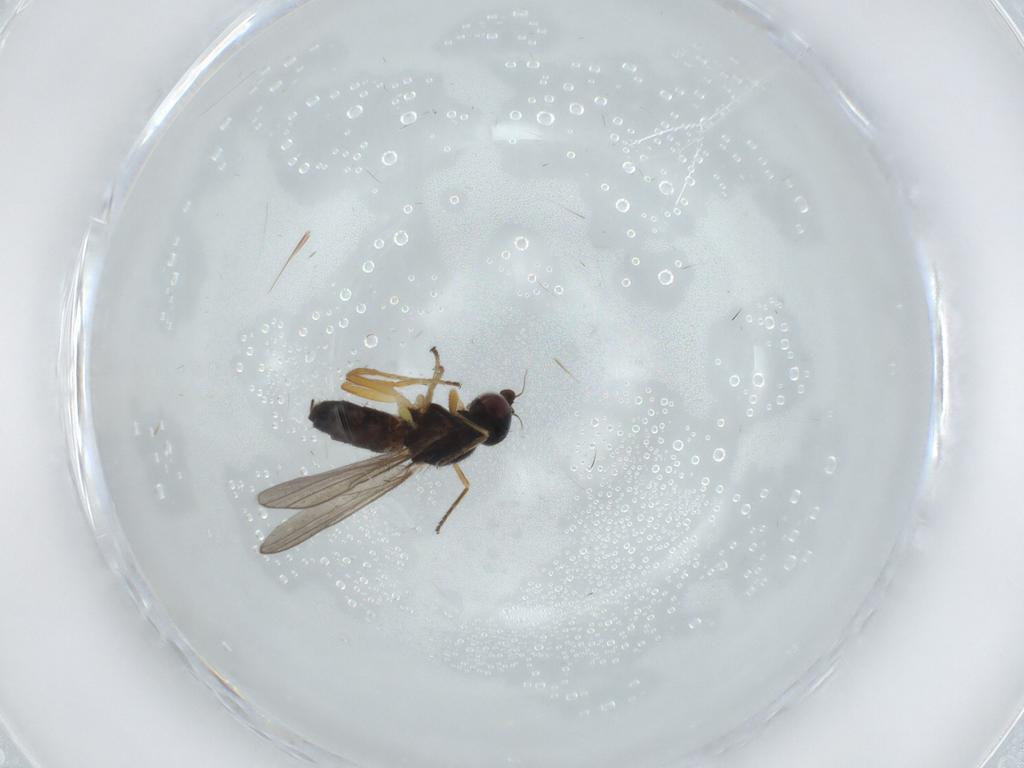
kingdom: Animalia
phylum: Arthropoda
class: Insecta
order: Diptera
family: Chloropidae
